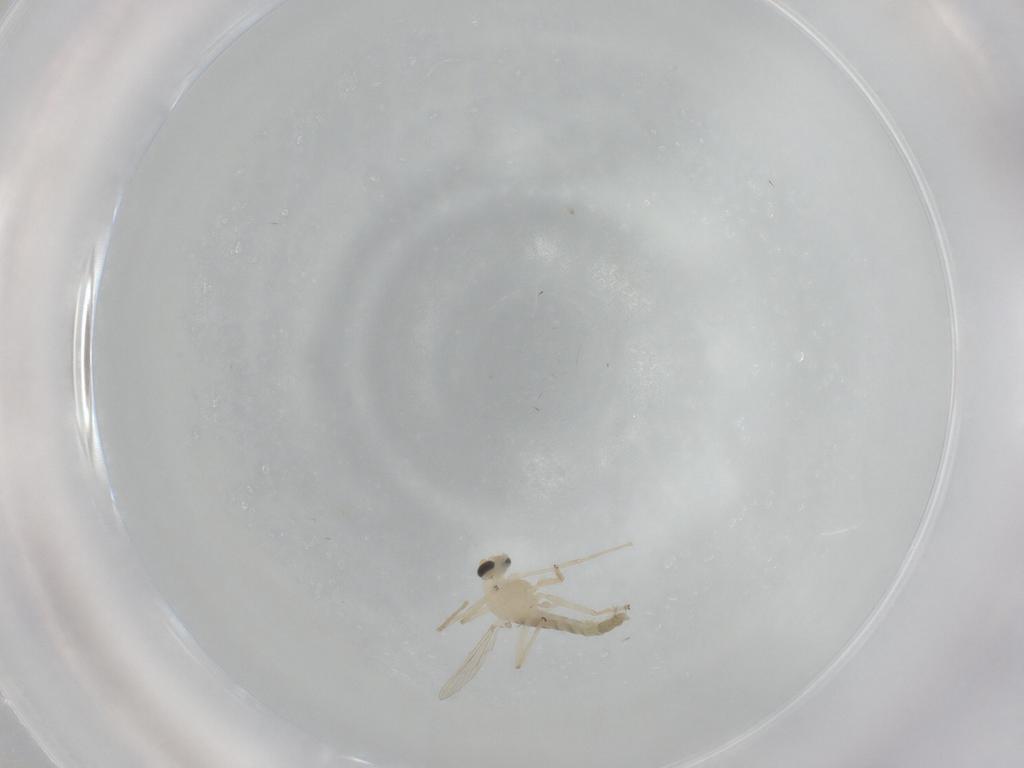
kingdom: Animalia
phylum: Arthropoda
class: Insecta
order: Diptera
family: Chironomidae
